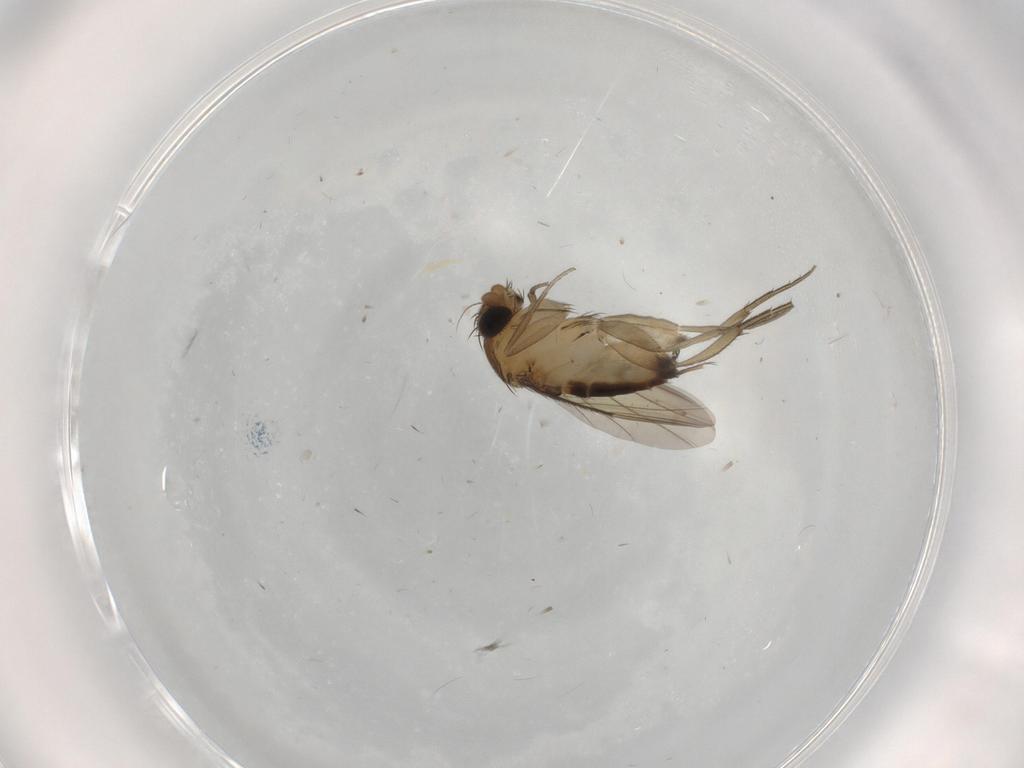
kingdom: Animalia
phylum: Arthropoda
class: Insecta
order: Diptera
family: Phoridae
